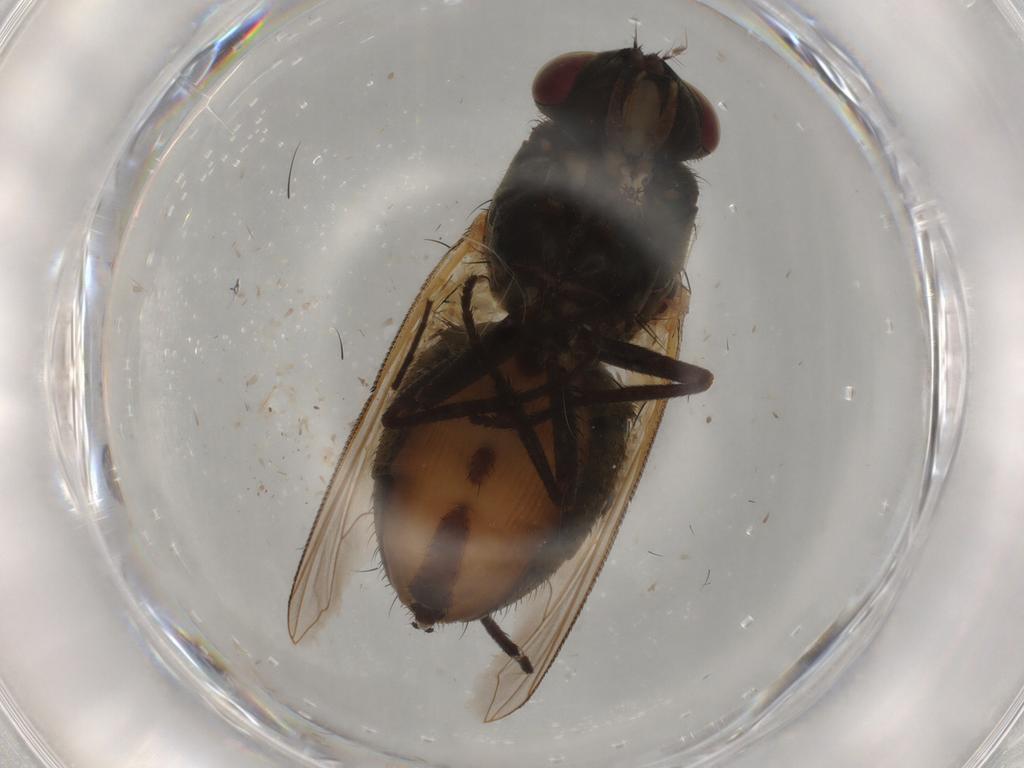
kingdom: Animalia
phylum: Arthropoda
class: Insecta
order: Diptera
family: Muscidae
